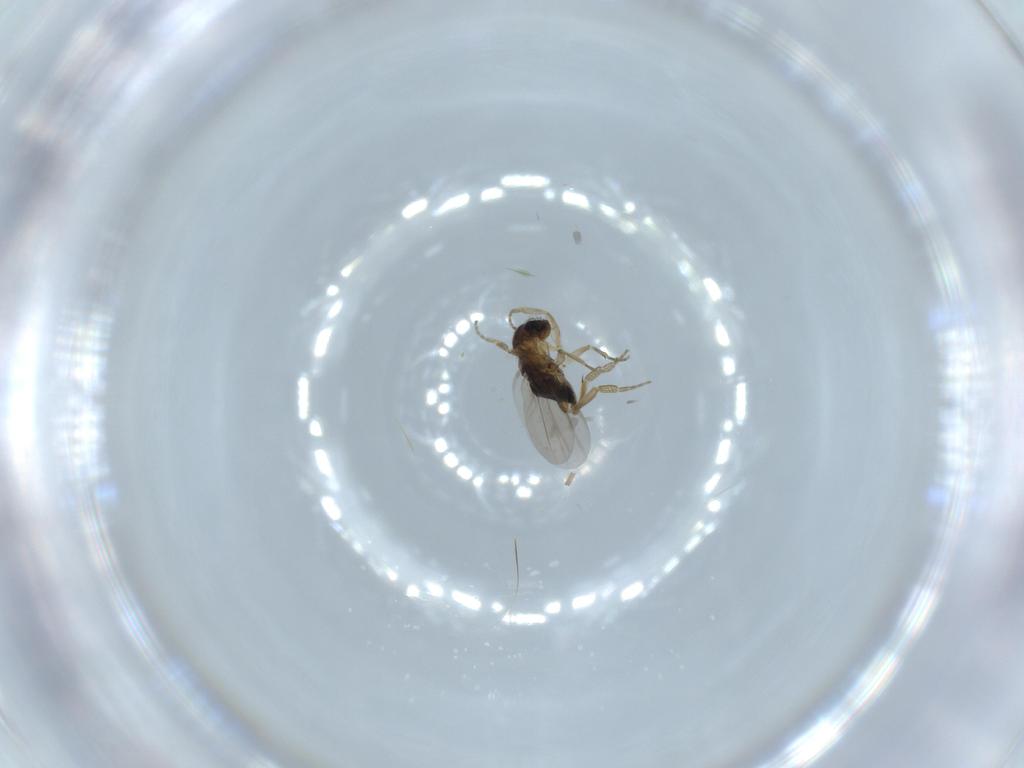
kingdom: Animalia
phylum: Arthropoda
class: Insecta
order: Diptera
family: Phoridae
